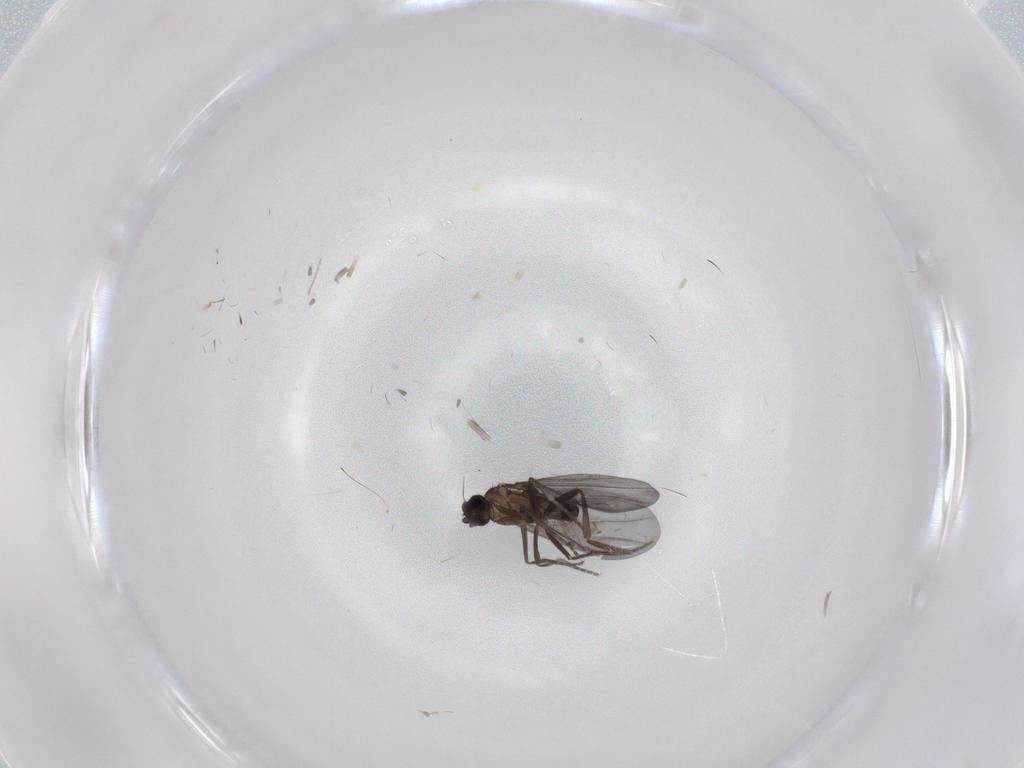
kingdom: Animalia
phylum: Arthropoda
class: Insecta
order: Diptera
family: Phoridae
